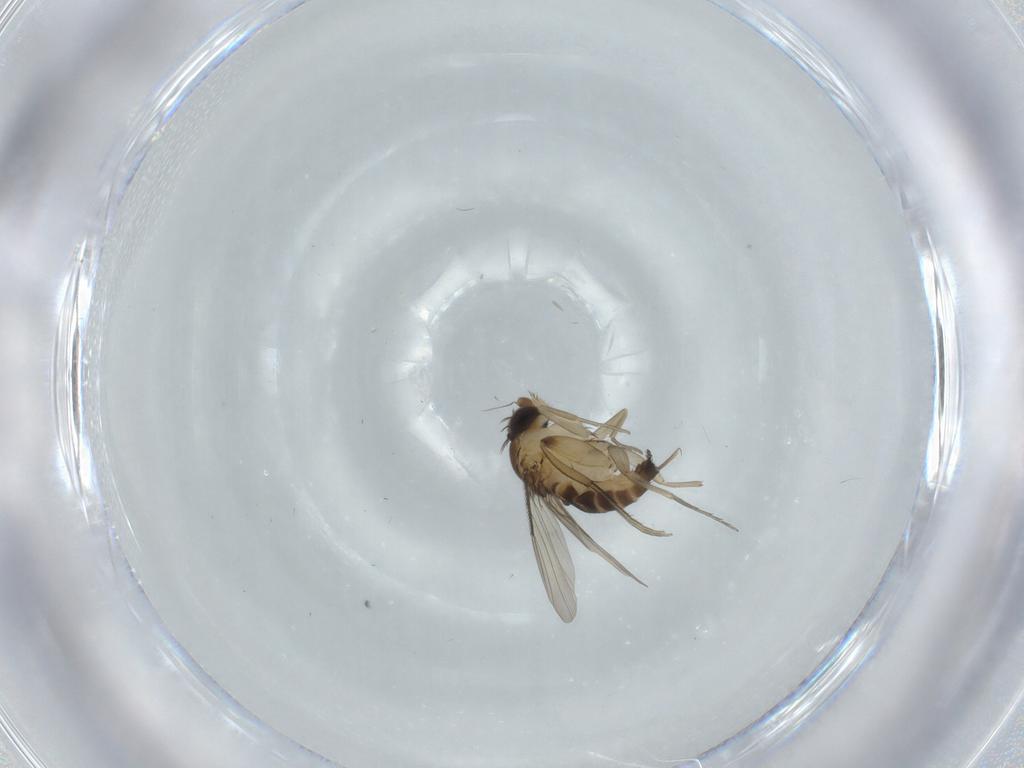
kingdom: Animalia
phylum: Arthropoda
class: Insecta
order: Diptera
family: Phoridae
